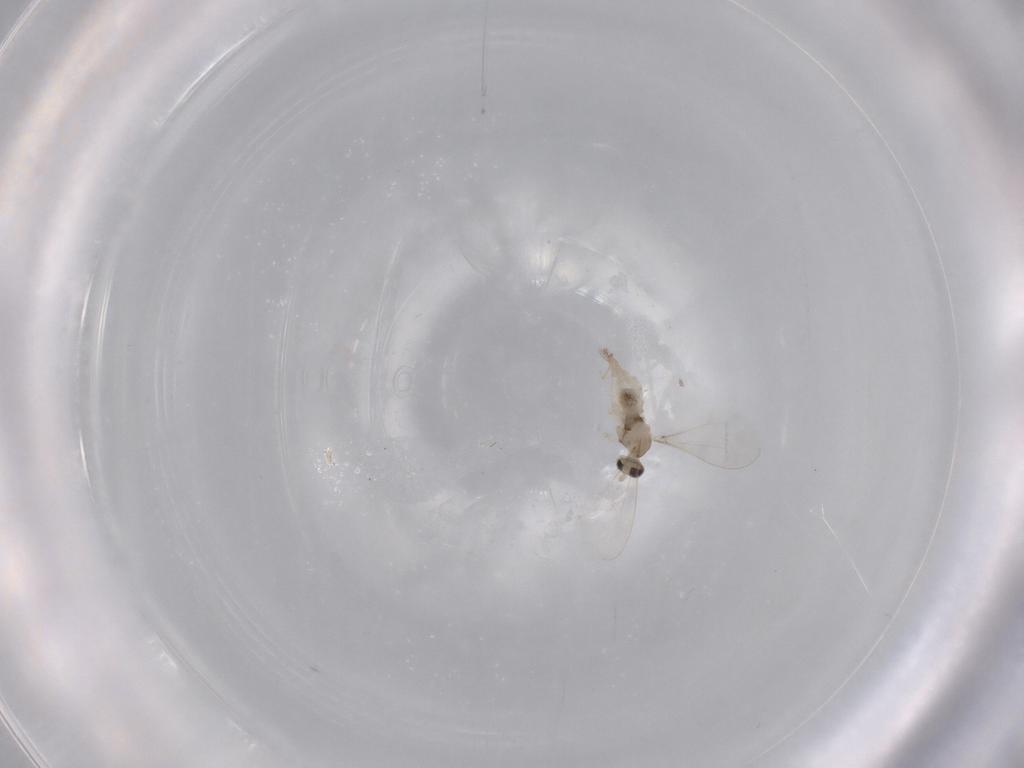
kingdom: Animalia
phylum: Arthropoda
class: Insecta
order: Diptera
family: Cecidomyiidae
